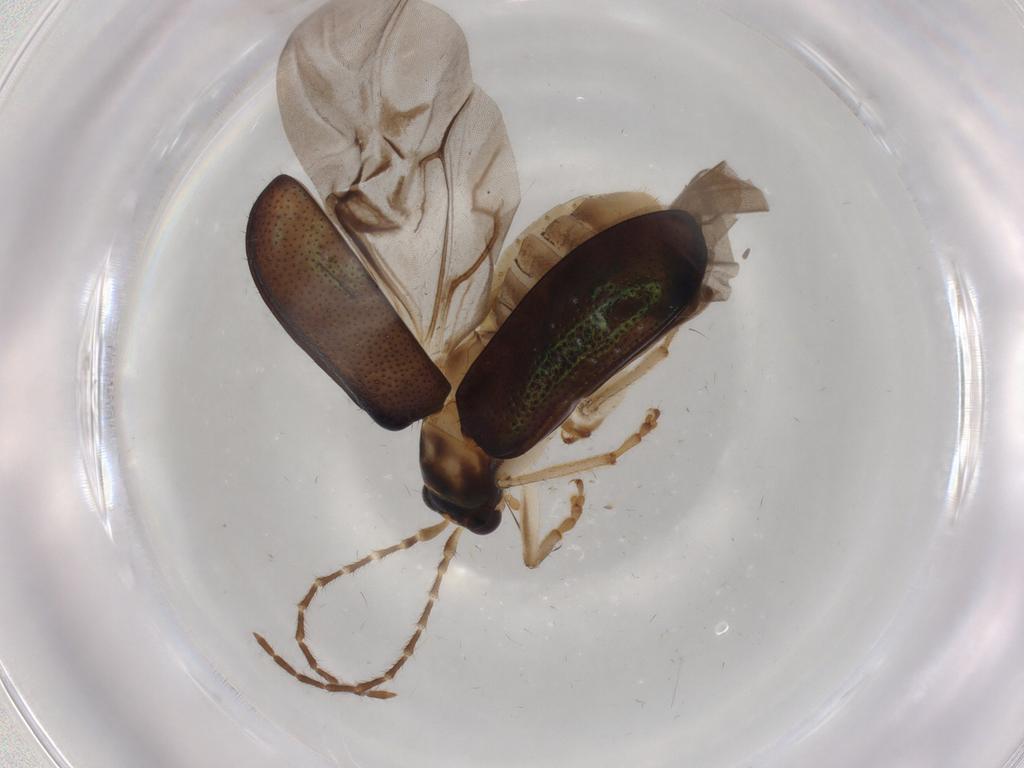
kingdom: Animalia
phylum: Arthropoda
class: Insecta
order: Coleoptera
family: Chrysomelidae
